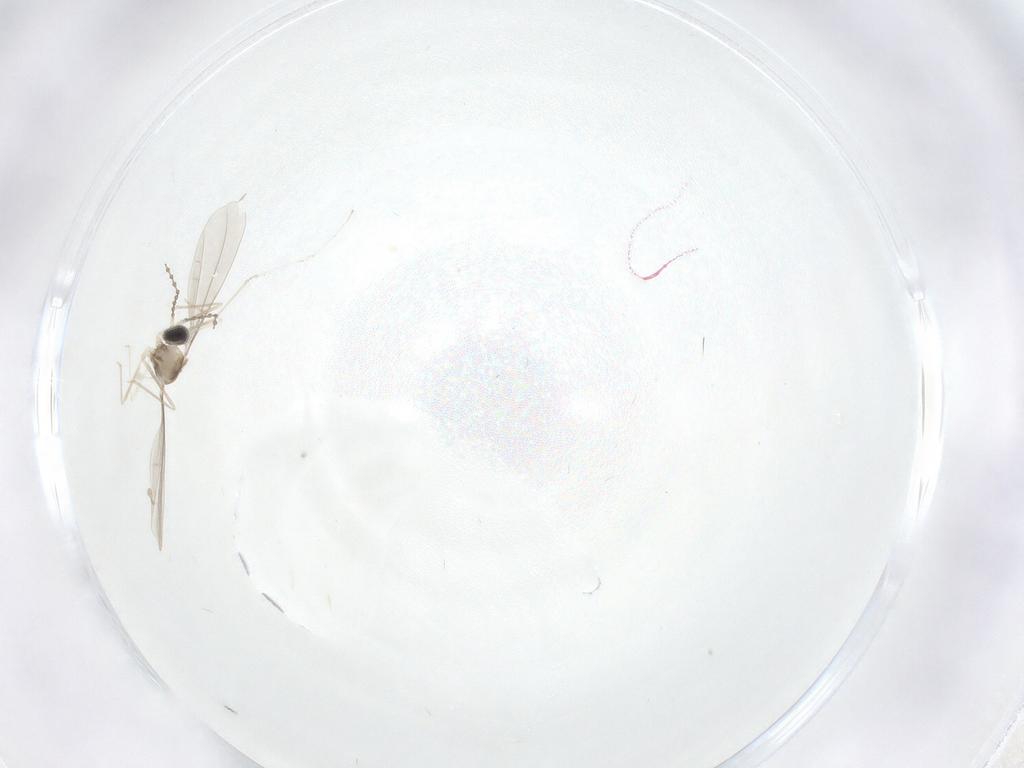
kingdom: Animalia
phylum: Arthropoda
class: Insecta
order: Diptera
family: Cecidomyiidae
